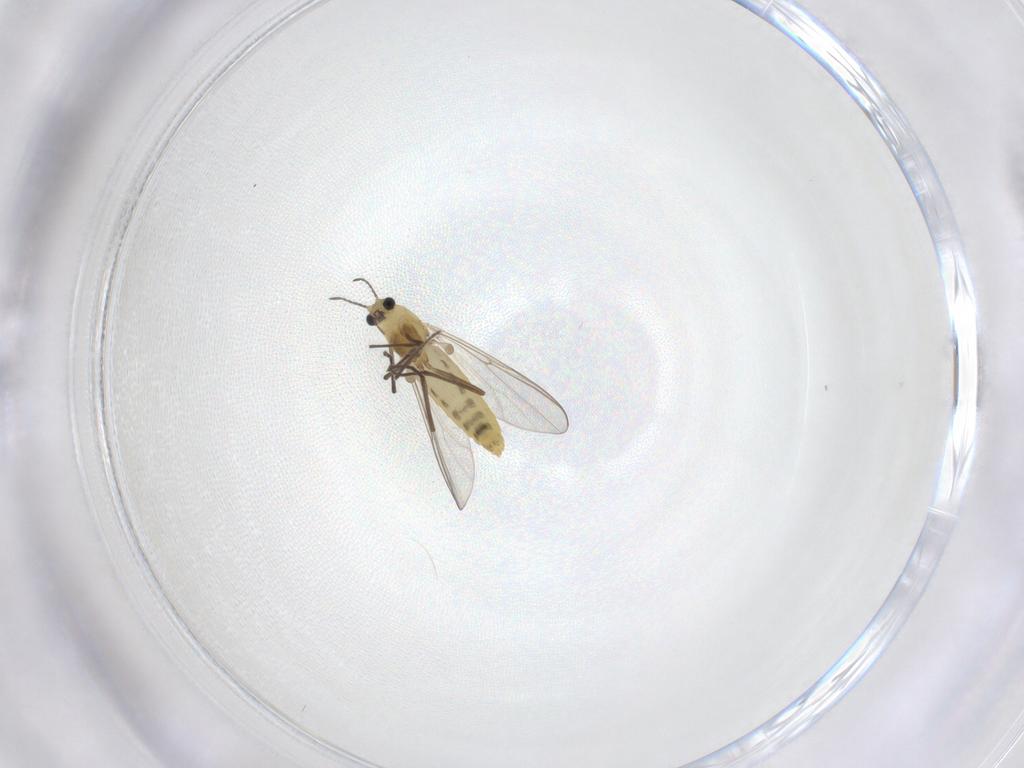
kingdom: Animalia
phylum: Arthropoda
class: Insecta
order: Diptera
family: Chironomidae
